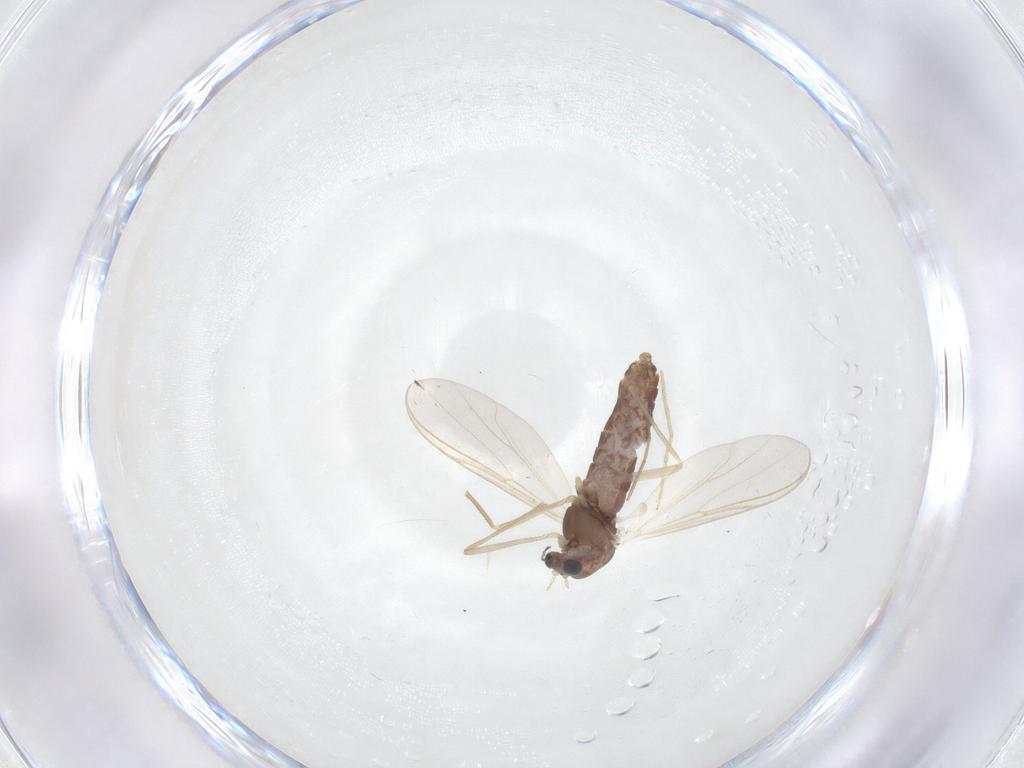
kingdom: Animalia
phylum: Arthropoda
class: Insecta
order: Diptera
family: Chironomidae
